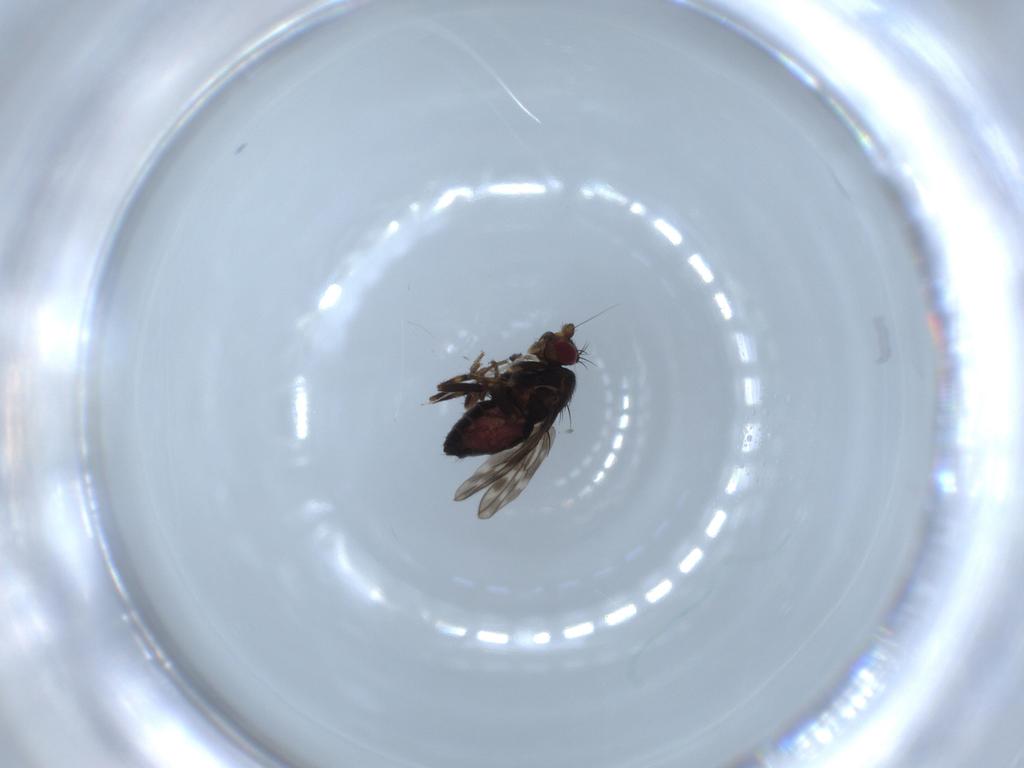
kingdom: Animalia
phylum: Arthropoda
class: Insecta
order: Diptera
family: Sphaeroceridae
